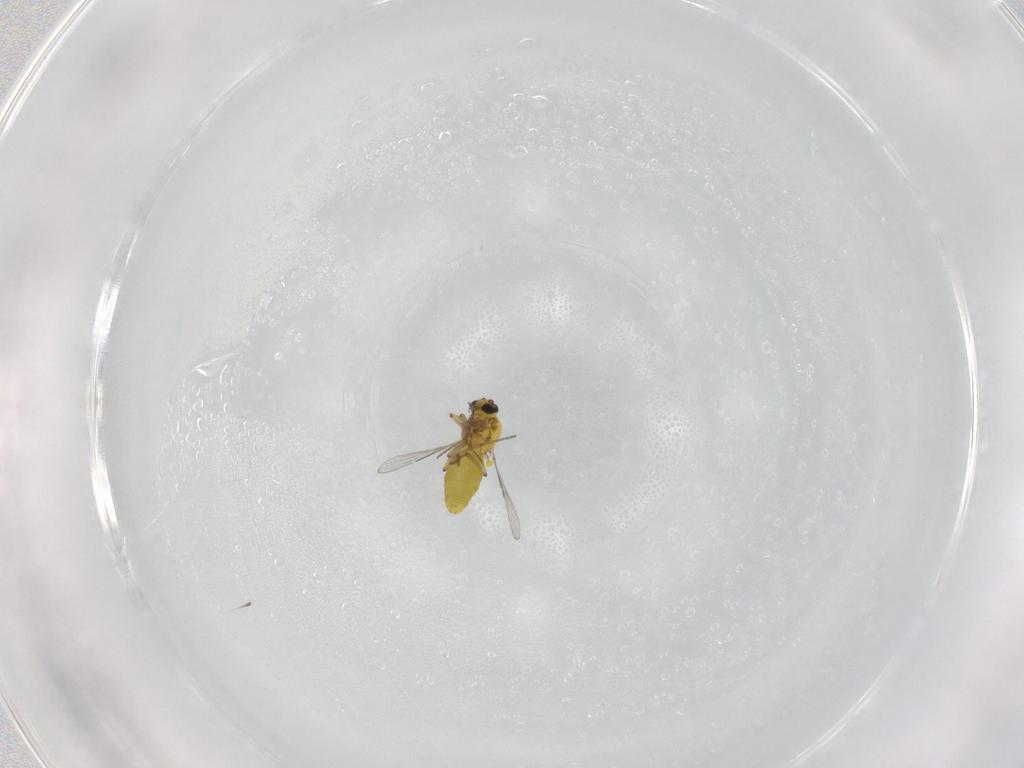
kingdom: Animalia
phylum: Arthropoda
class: Insecta
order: Diptera
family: Ceratopogonidae
